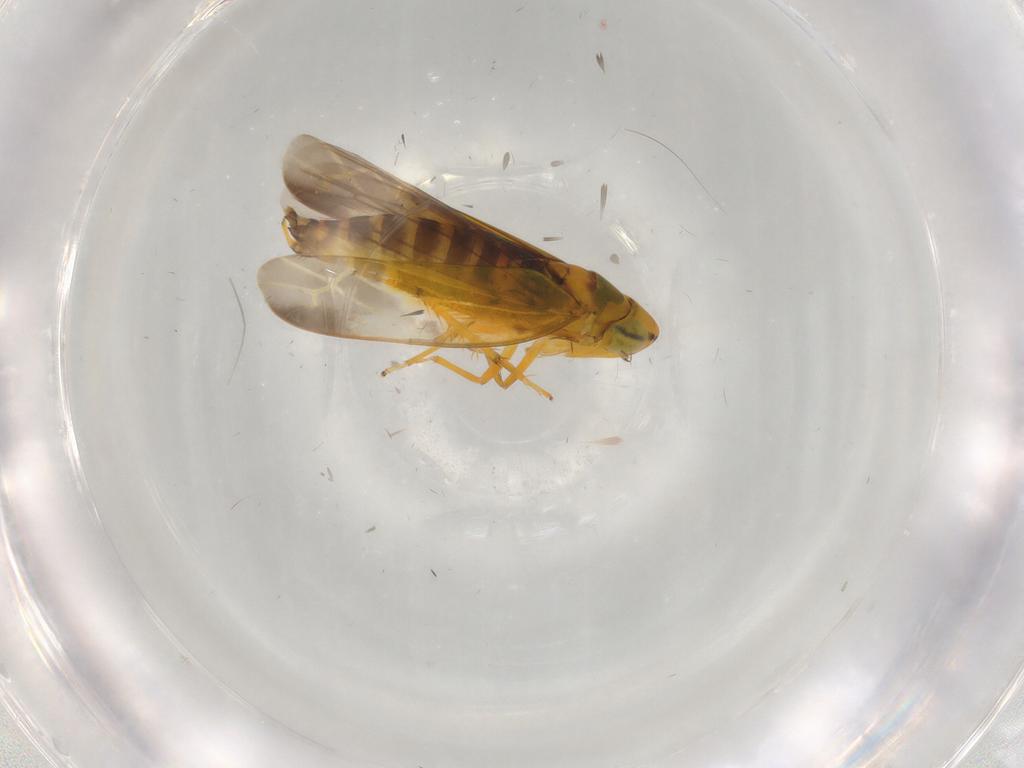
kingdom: Animalia
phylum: Arthropoda
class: Insecta
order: Hemiptera
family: Cicadellidae
